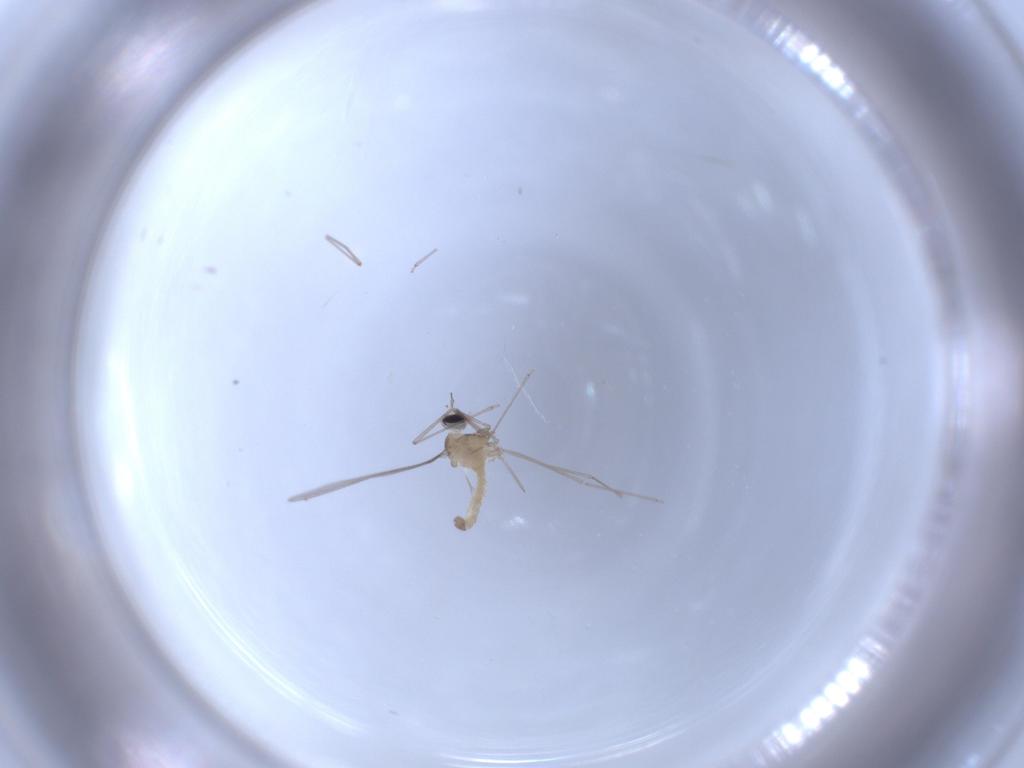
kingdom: Animalia
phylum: Arthropoda
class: Insecta
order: Diptera
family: Cecidomyiidae
